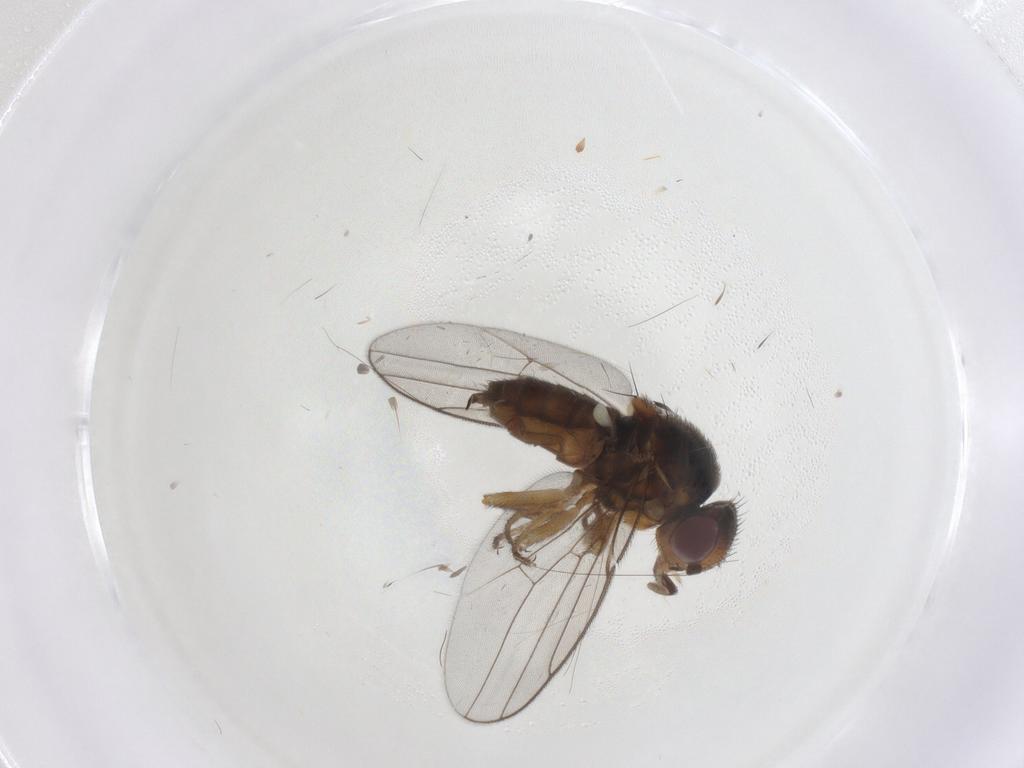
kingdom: Animalia
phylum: Arthropoda
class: Insecta
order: Diptera
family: Chloropidae
